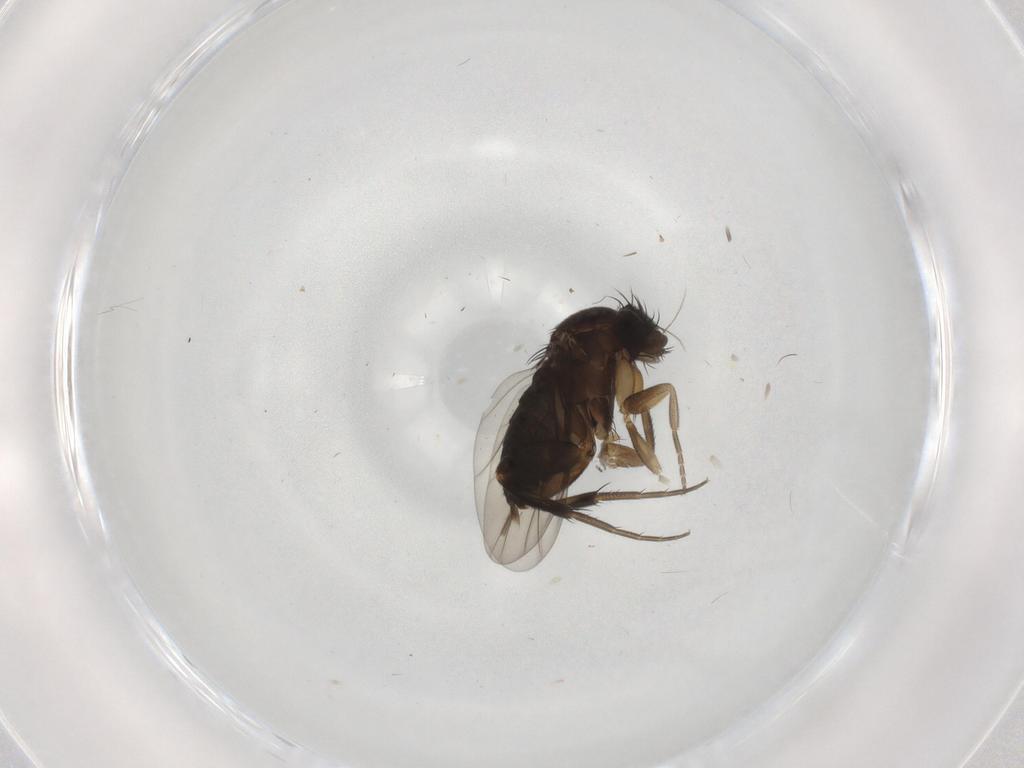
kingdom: Animalia
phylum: Arthropoda
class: Insecta
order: Diptera
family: Phoridae
